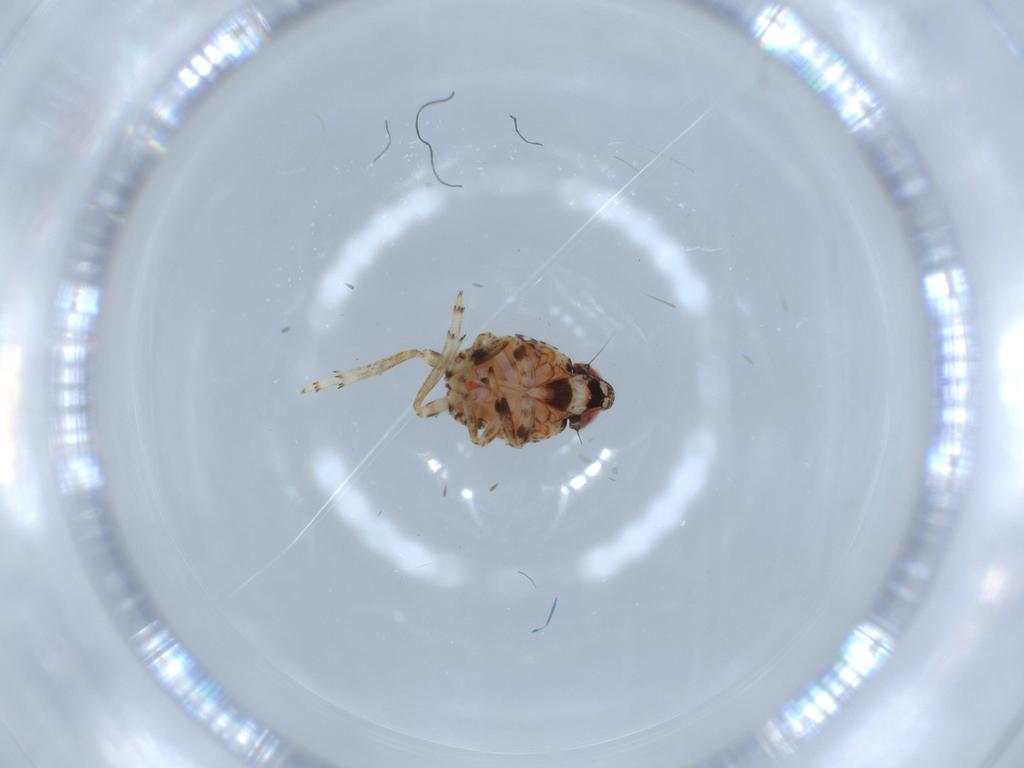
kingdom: Animalia
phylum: Arthropoda
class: Insecta
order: Hemiptera
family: Issidae
